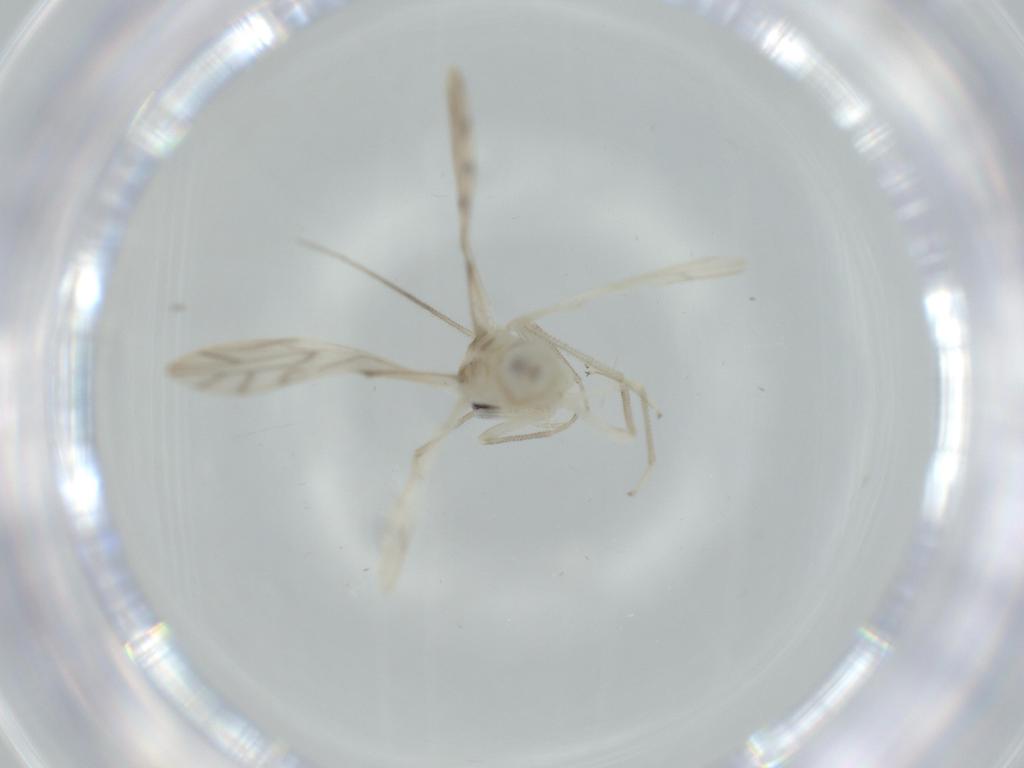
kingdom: Animalia
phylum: Arthropoda
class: Insecta
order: Psocodea
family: Caeciliusidae
